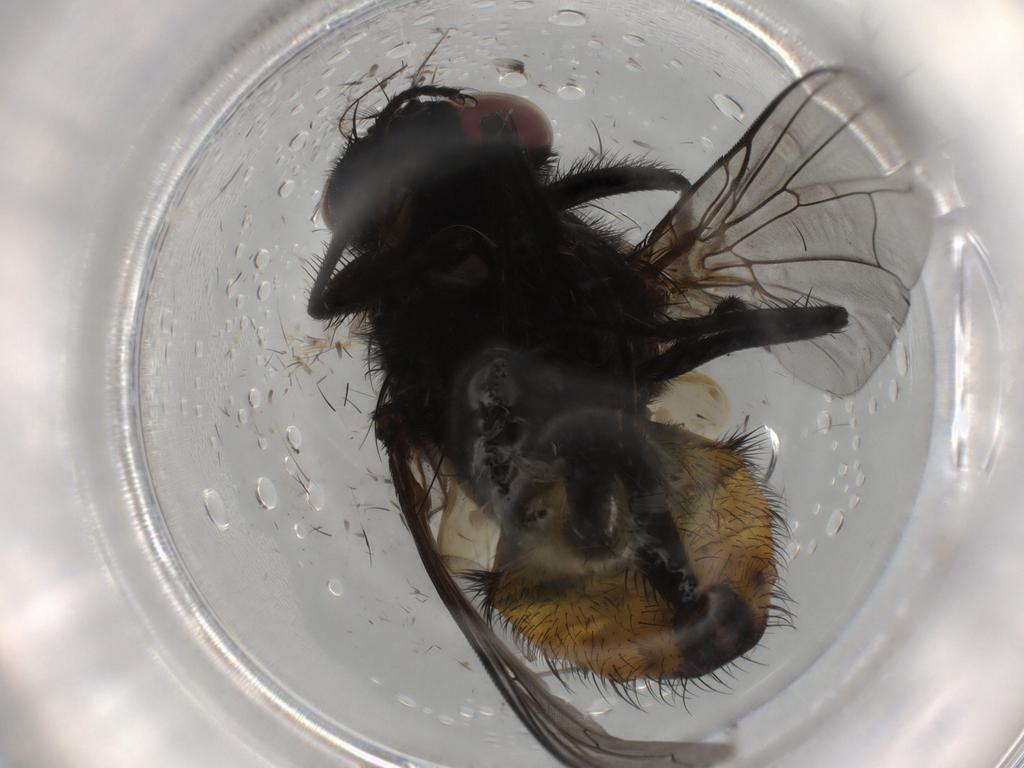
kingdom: Animalia
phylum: Arthropoda
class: Insecta
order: Diptera
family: Chironomidae
